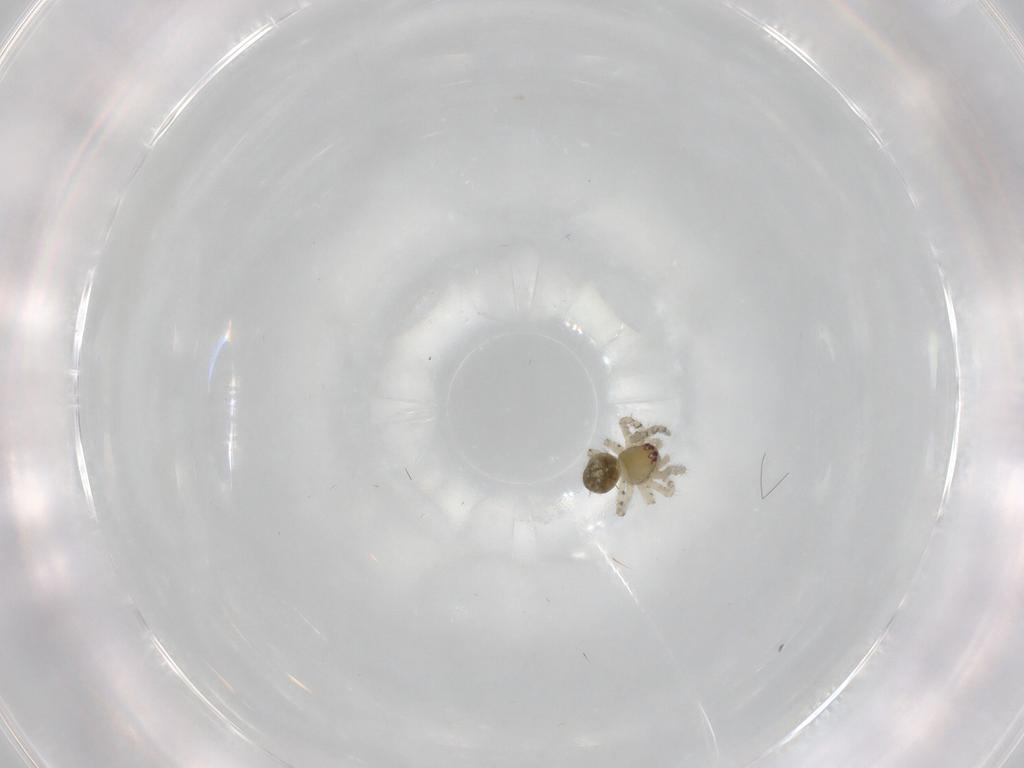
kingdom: Animalia
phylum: Arthropoda
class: Arachnida
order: Araneae
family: Theridiidae
